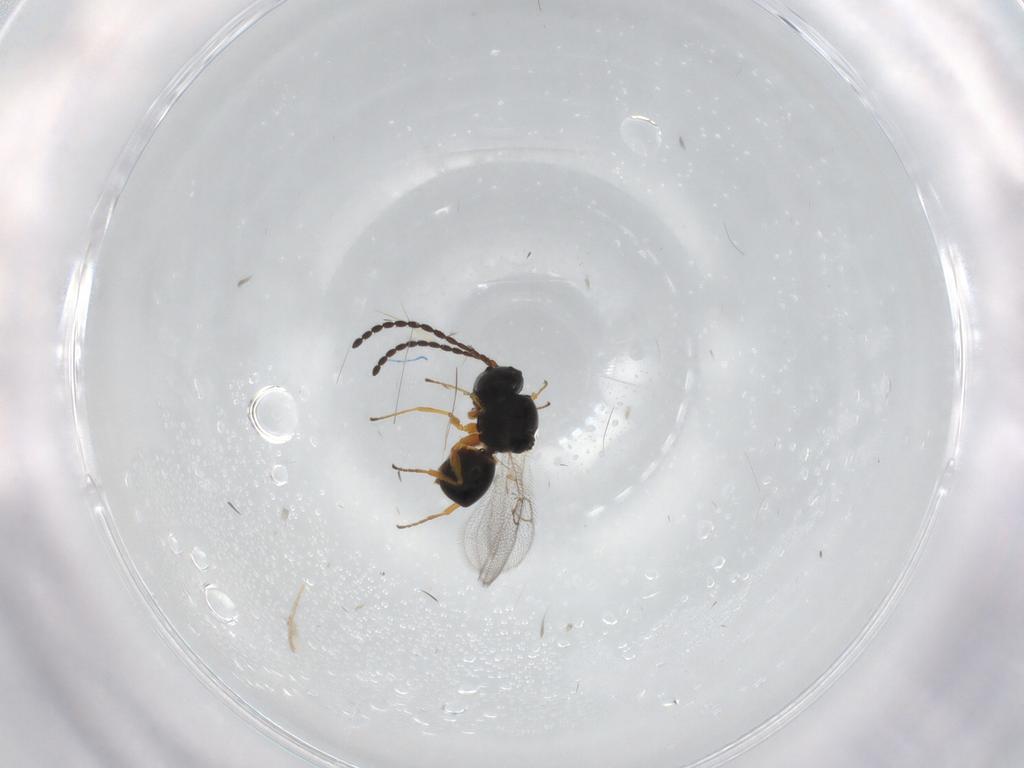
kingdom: Animalia
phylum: Arthropoda
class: Insecta
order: Hymenoptera
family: Figitidae
